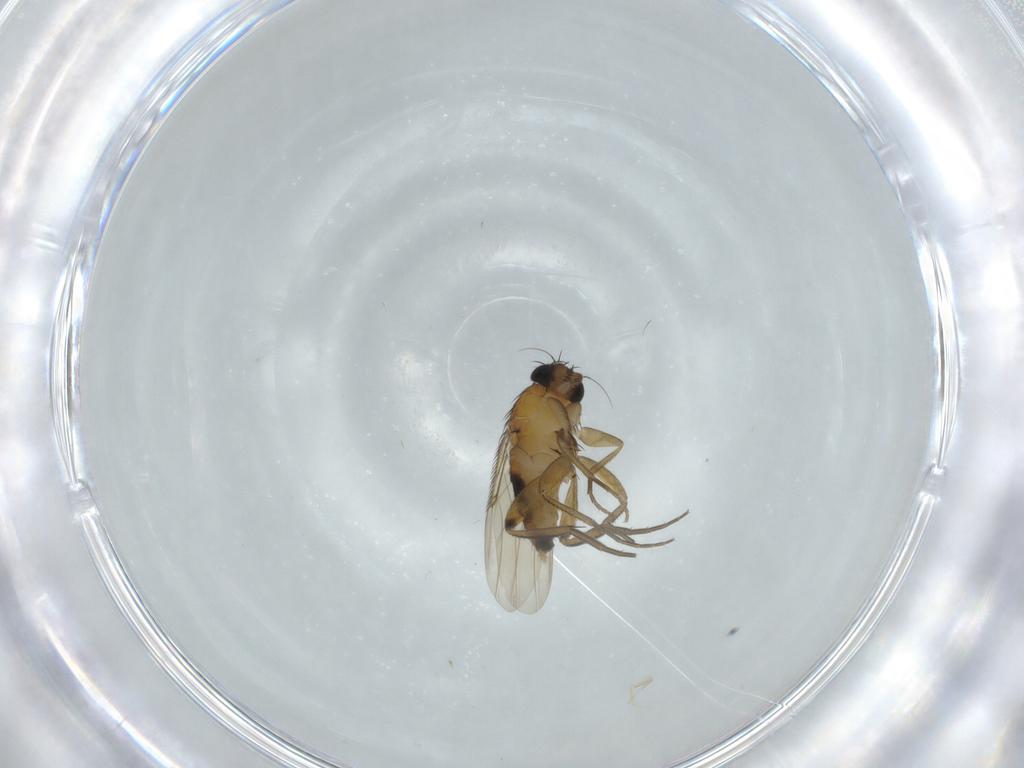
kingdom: Animalia
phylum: Arthropoda
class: Insecta
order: Diptera
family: Phoridae
